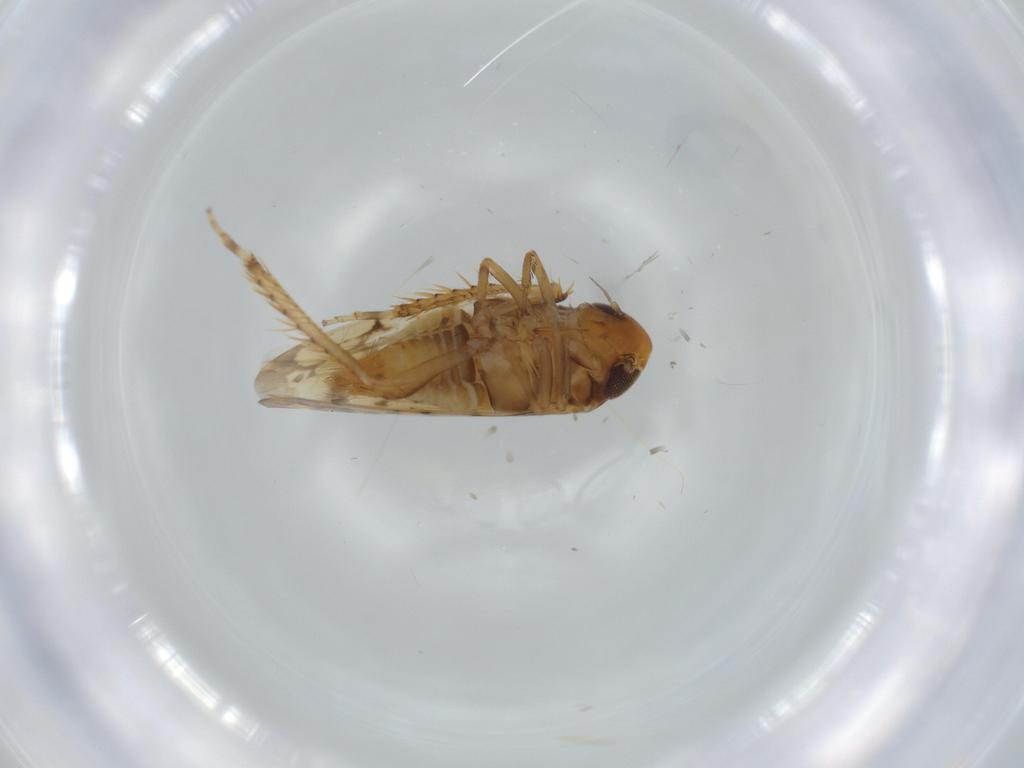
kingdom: Animalia
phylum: Arthropoda
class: Insecta
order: Hemiptera
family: Cicadellidae
